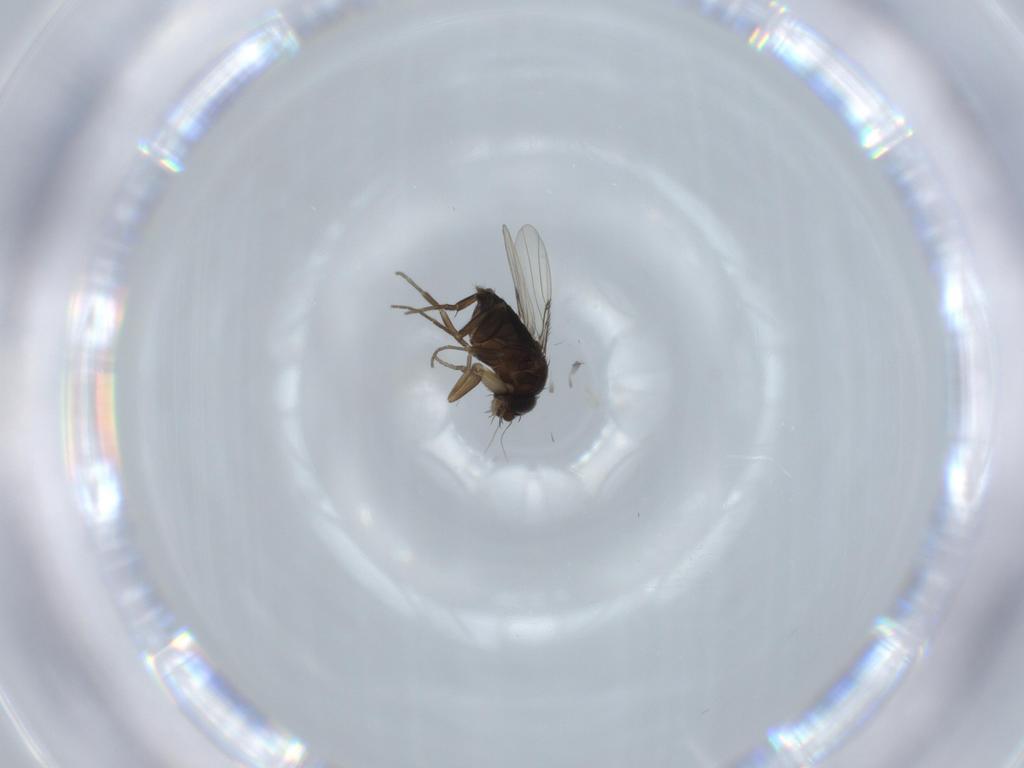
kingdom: Animalia
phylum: Arthropoda
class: Insecta
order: Diptera
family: Phoridae
